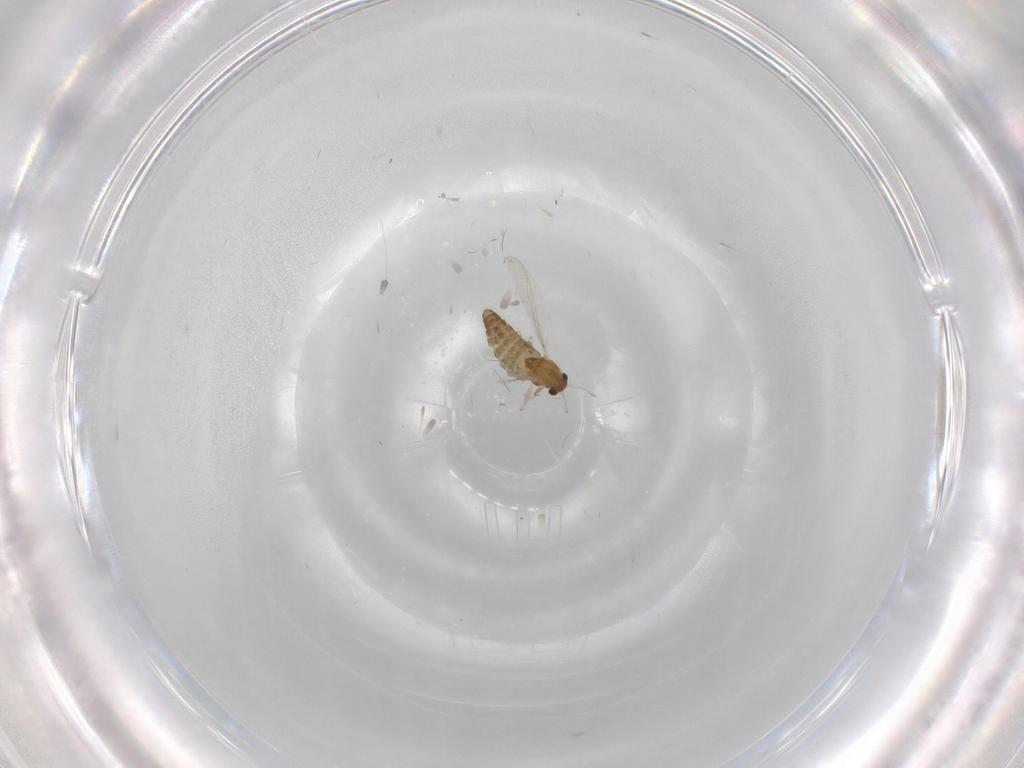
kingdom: Animalia
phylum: Arthropoda
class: Insecta
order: Diptera
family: Chironomidae
